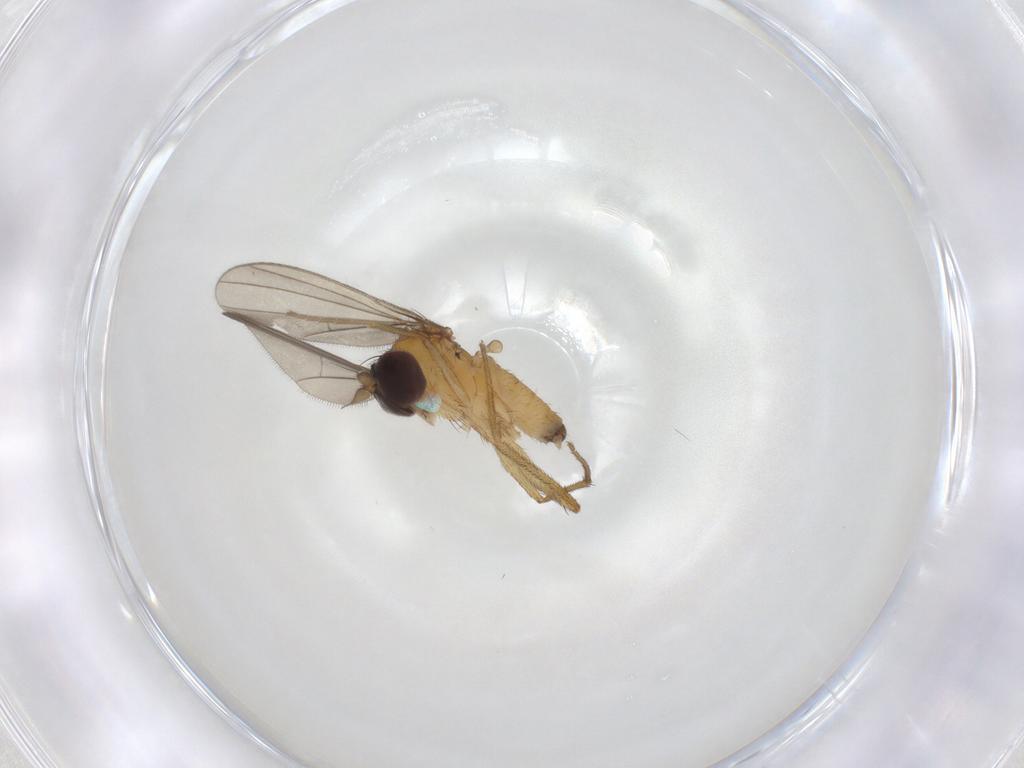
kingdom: Animalia
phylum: Arthropoda
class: Insecta
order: Diptera
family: Dolichopodidae
